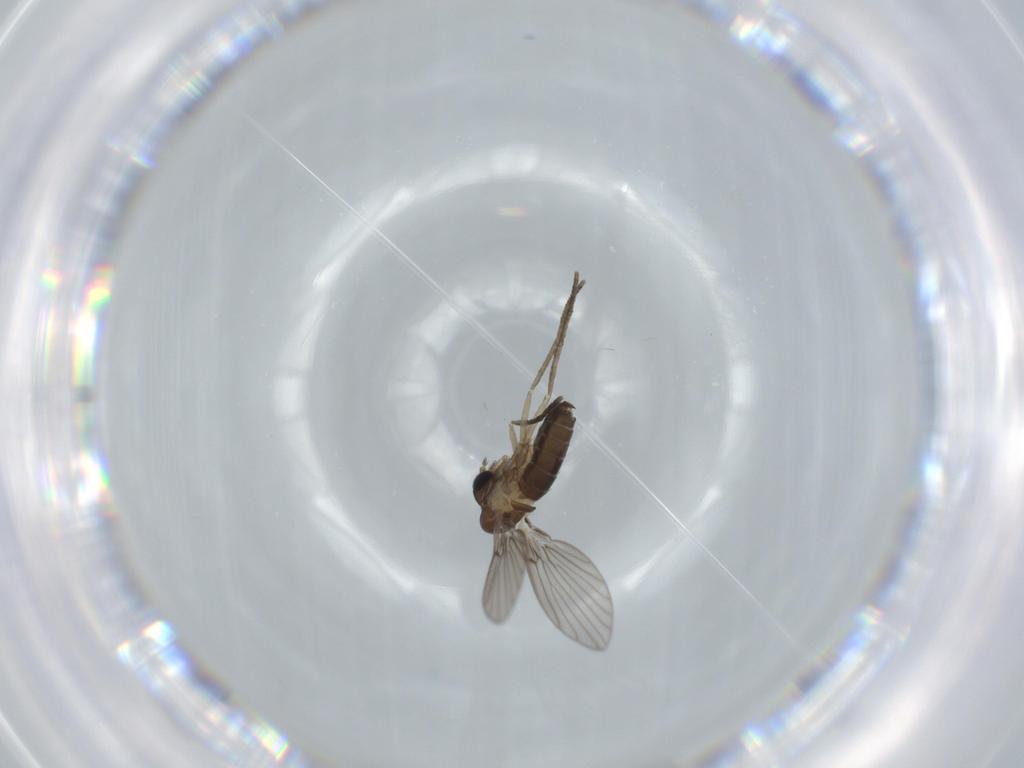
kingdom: Animalia
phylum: Arthropoda
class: Insecta
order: Diptera
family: Psychodidae
